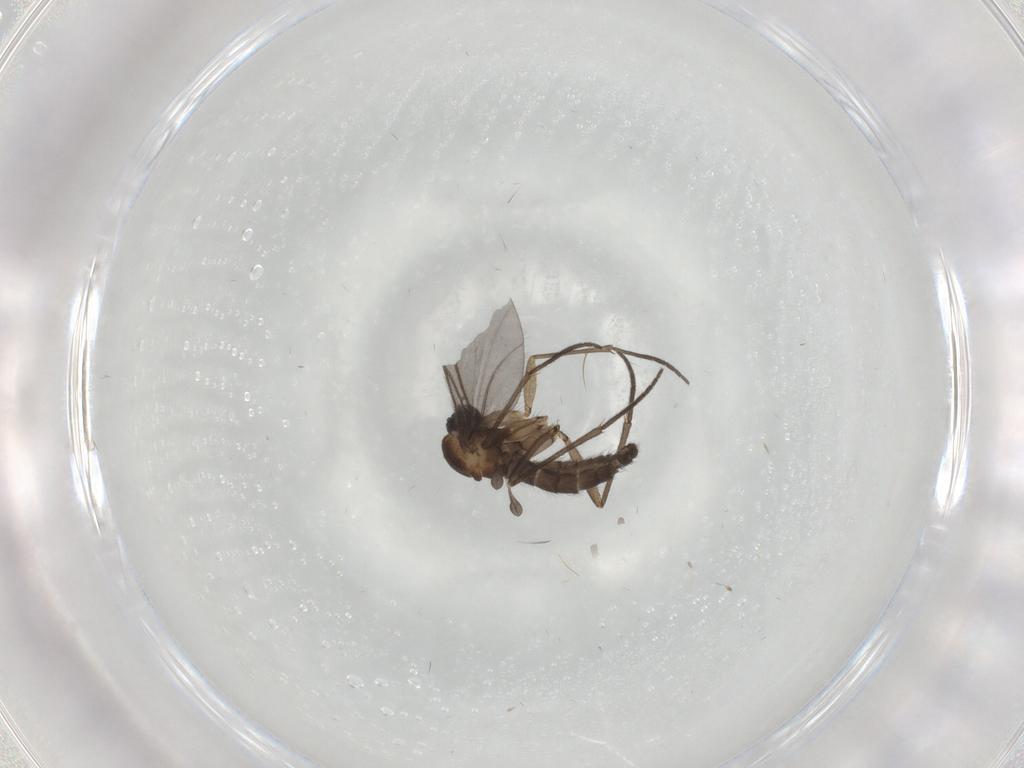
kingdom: Animalia
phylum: Arthropoda
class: Insecta
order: Diptera
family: Sciaridae
